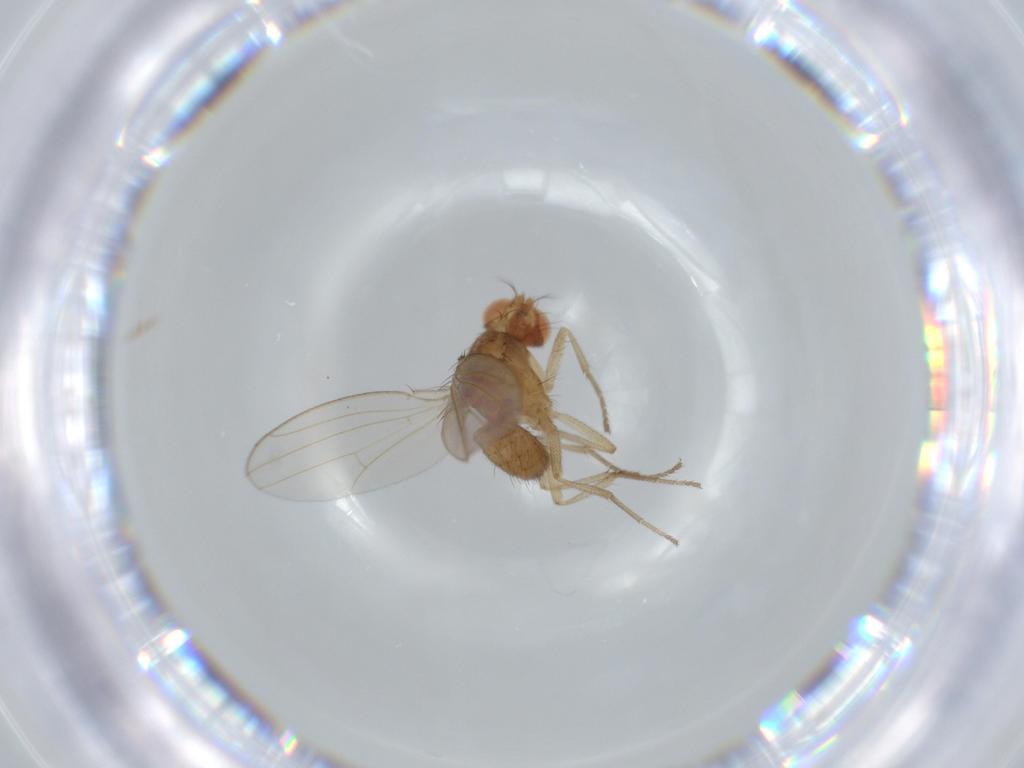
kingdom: Animalia
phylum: Arthropoda
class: Insecta
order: Diptera
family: Drosophilidae
